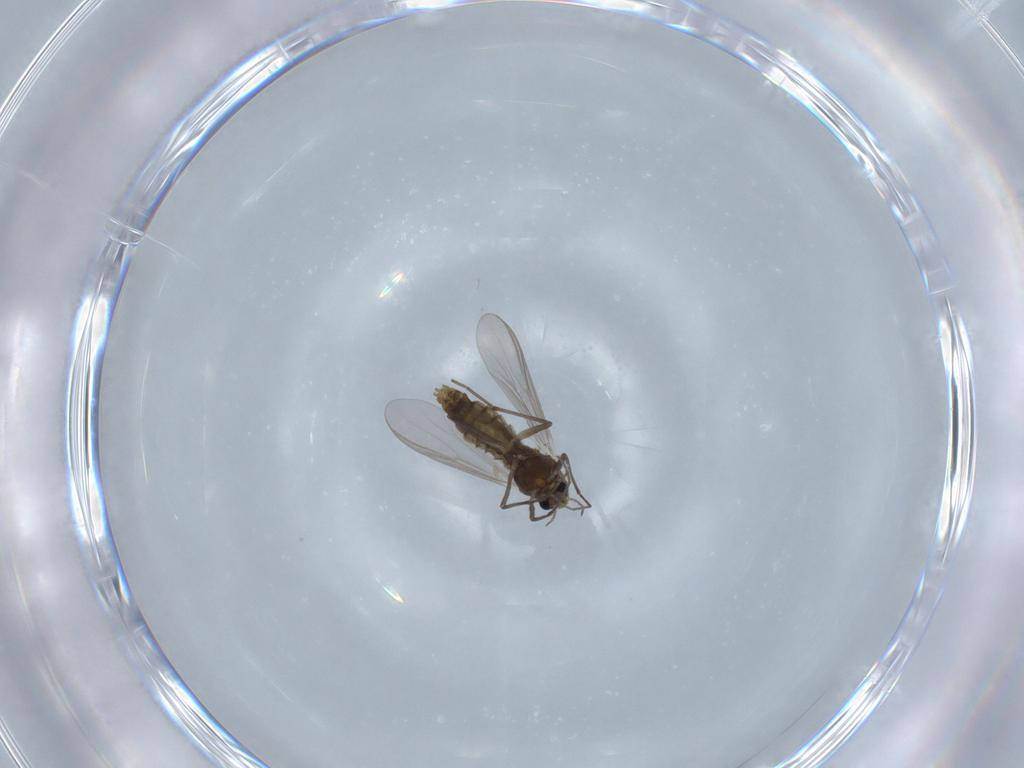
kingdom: Animalia
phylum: Arthropoda
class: Insecta
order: Diptera
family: Chironomidae
